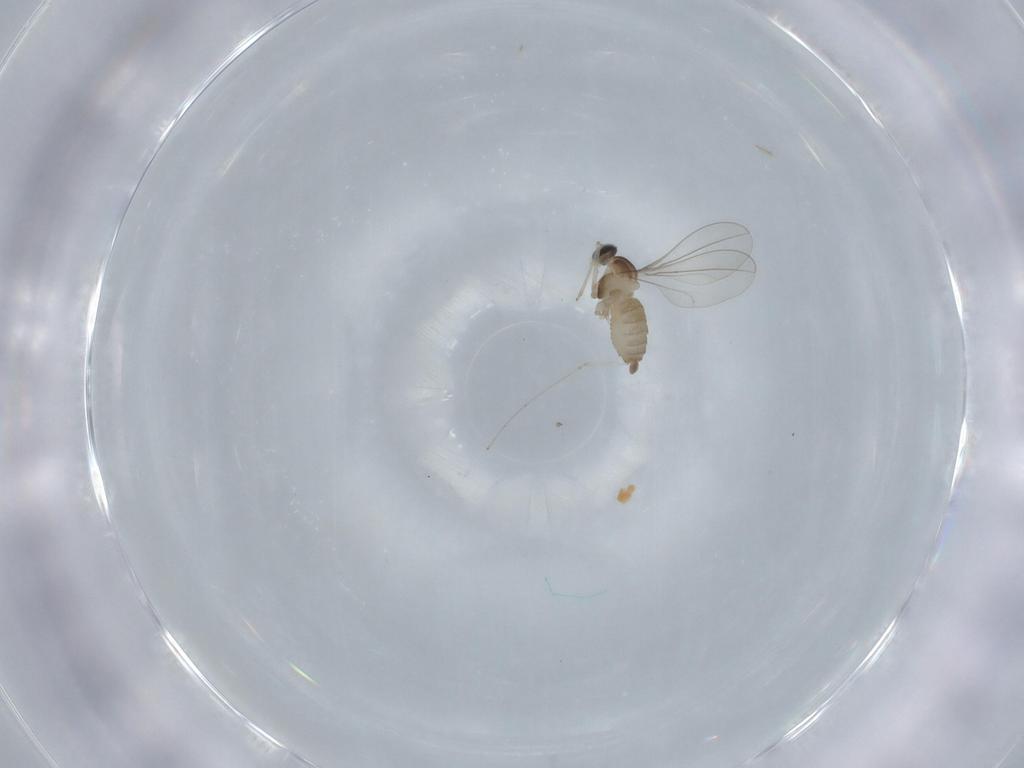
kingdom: Animalia
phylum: Arthropoda
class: Insecta
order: Diptera
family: Cecidomyiidae
